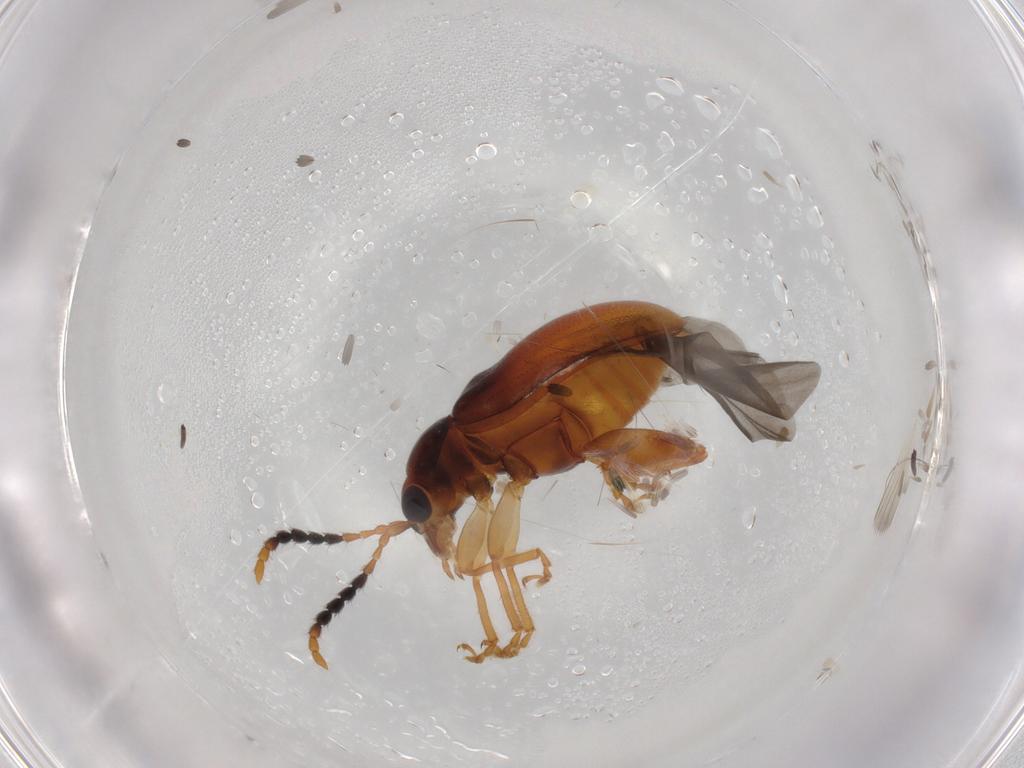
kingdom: Animalia
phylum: Arthropoda
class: Insecta
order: Coleoptera
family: Chrysomelidae
